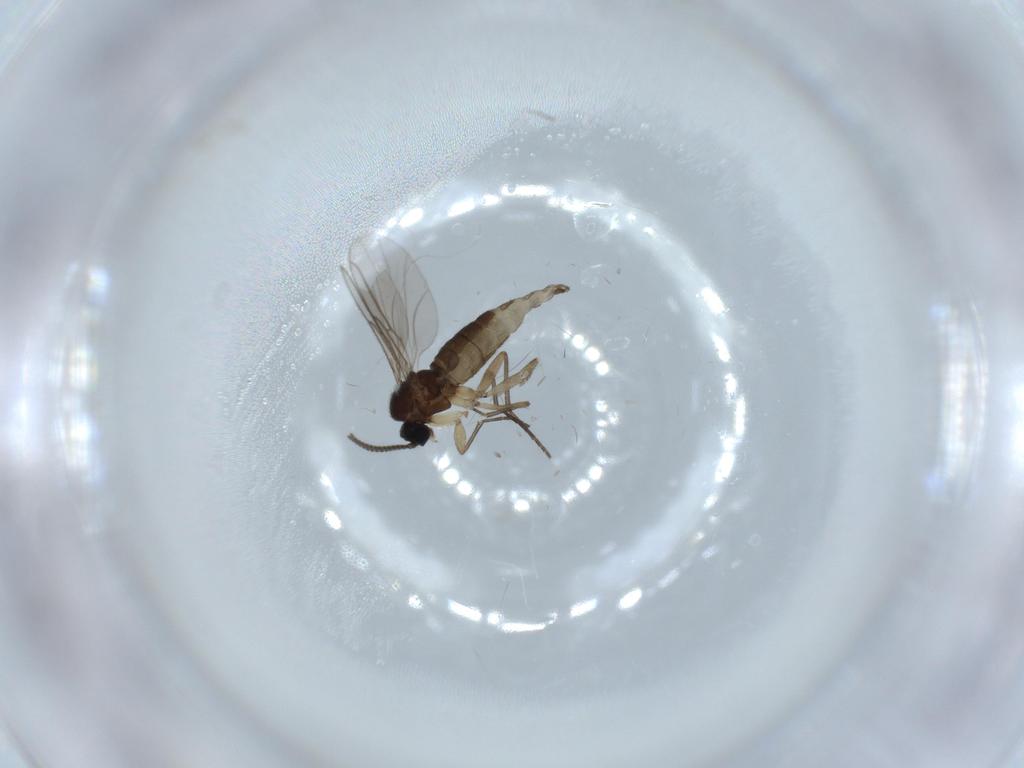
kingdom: Animalia
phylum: Arthropoda
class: Insecta
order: Diptera
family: Sciaridae
